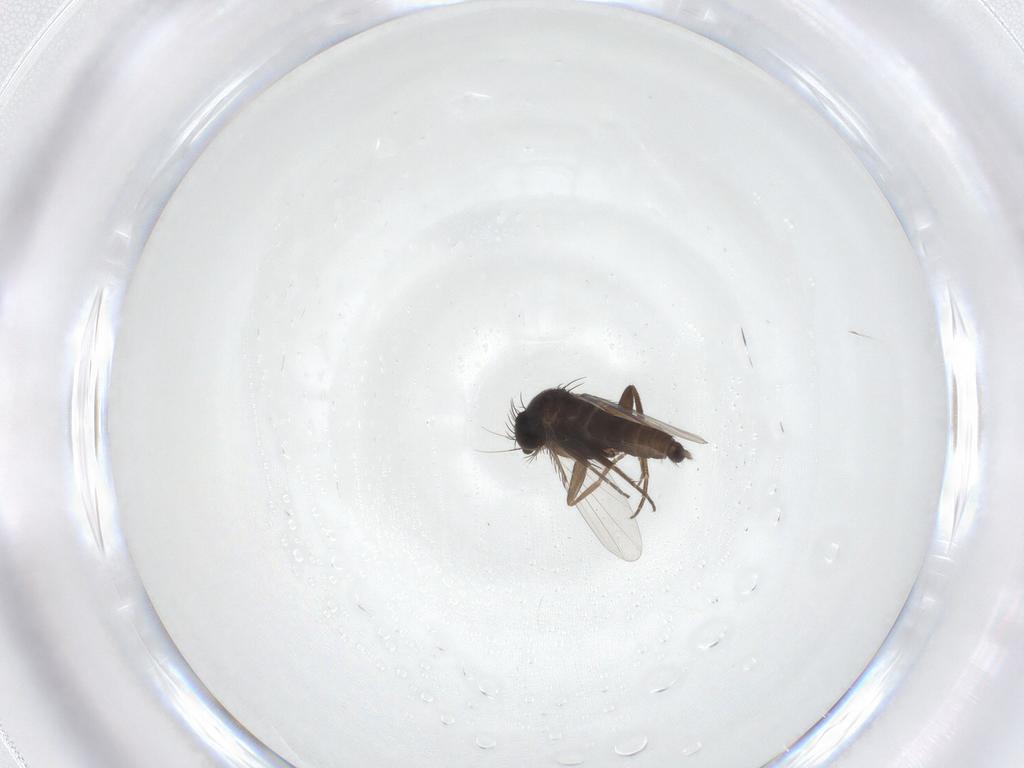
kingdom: Animalia
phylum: Arthropoda
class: Insecta
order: Diptera
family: Phoridae
